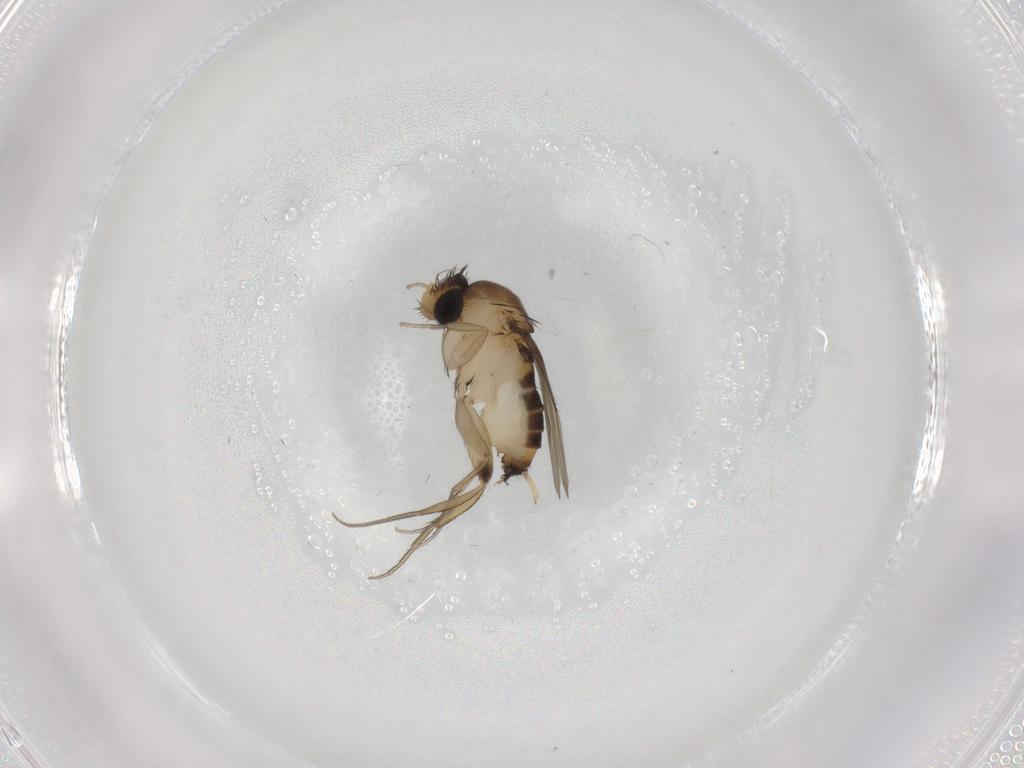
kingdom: Animalia
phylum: Arthropoda
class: Insecta
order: Diptera
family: Phoridae
